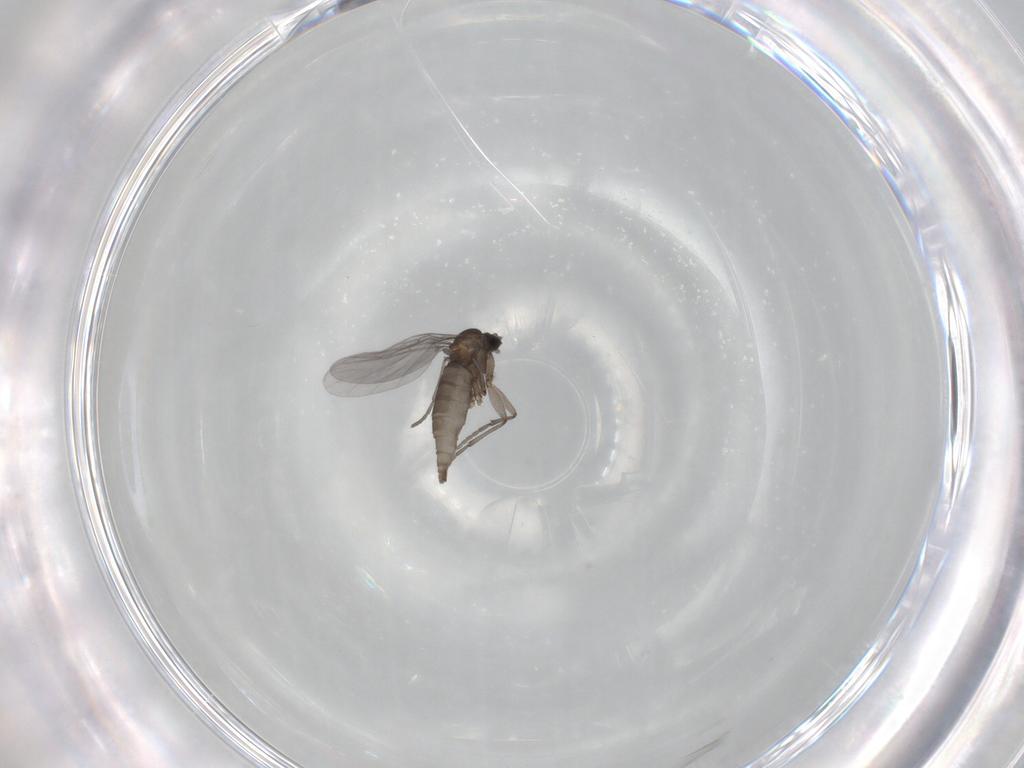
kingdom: Animalia
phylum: Arthropoda
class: Insecta
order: Diptera
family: Sciaridae
